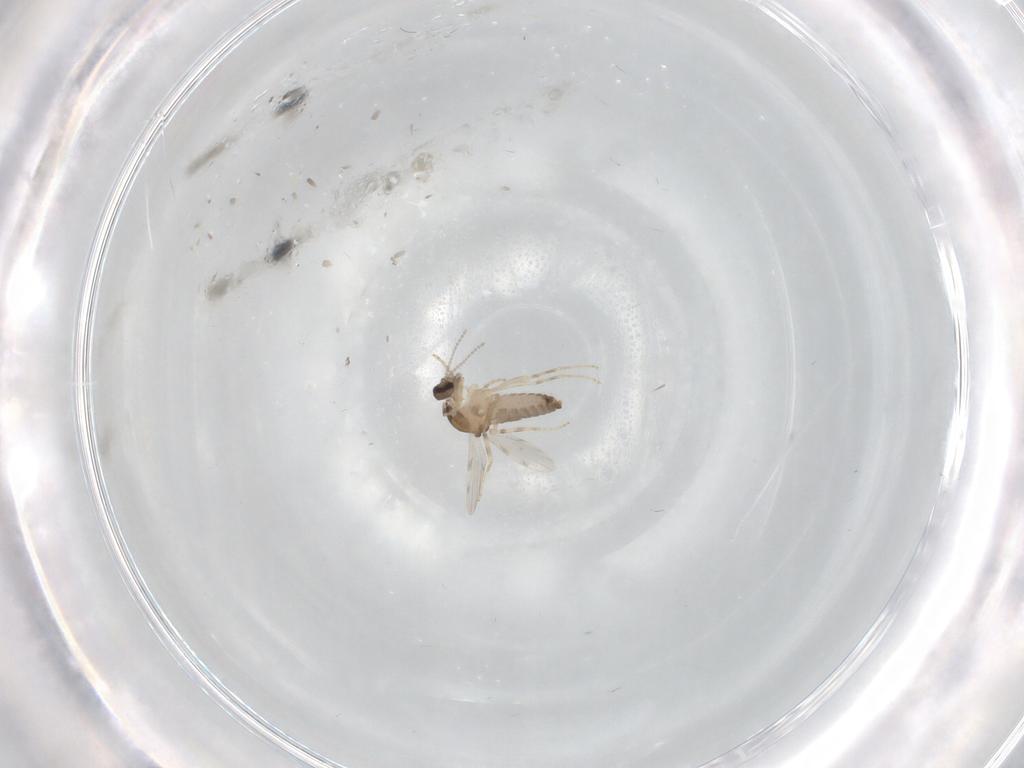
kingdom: Animalia
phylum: Arthropoda
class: Insecta
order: Diptera
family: Ceratopogonidae
